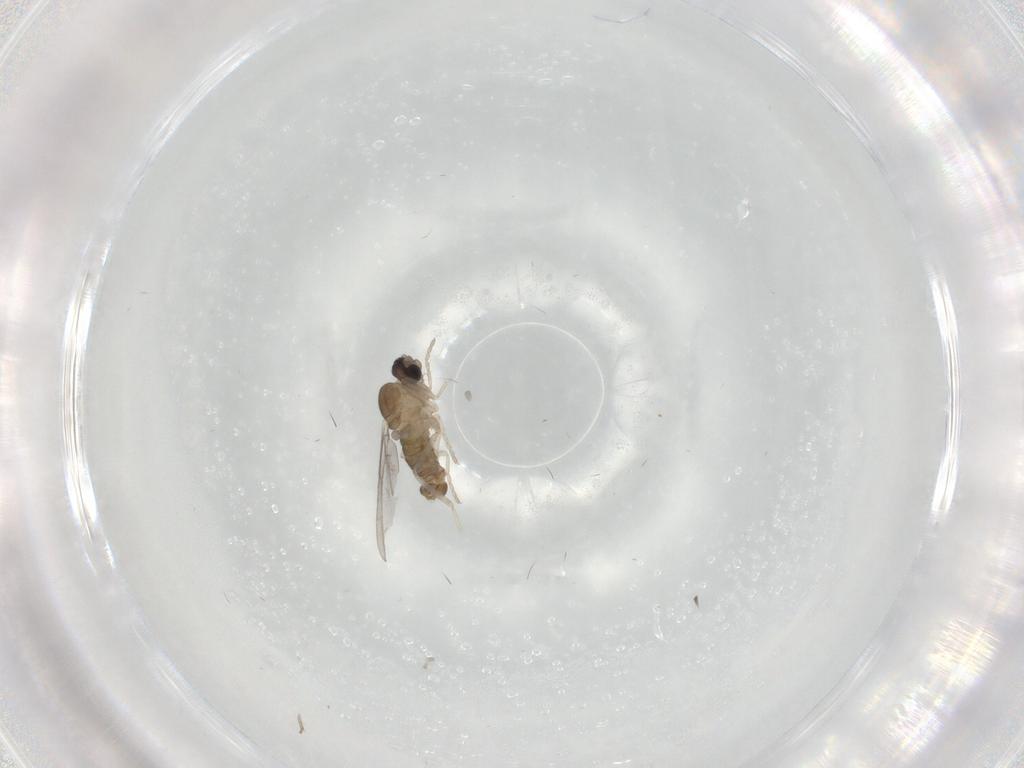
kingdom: Animalia
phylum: Arthropoda
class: Insecta
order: Diptera
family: Cecidomyiidae
